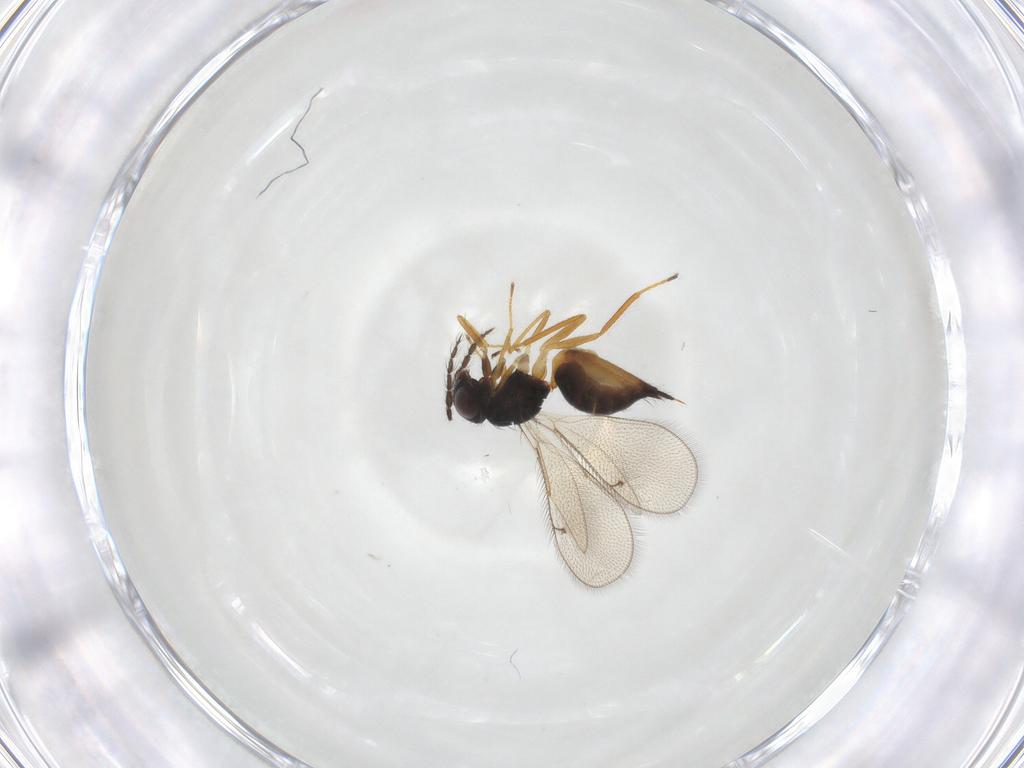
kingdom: Animalia
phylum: Arthropoda
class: Insecta
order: Hymenoptera
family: Eulophidae
